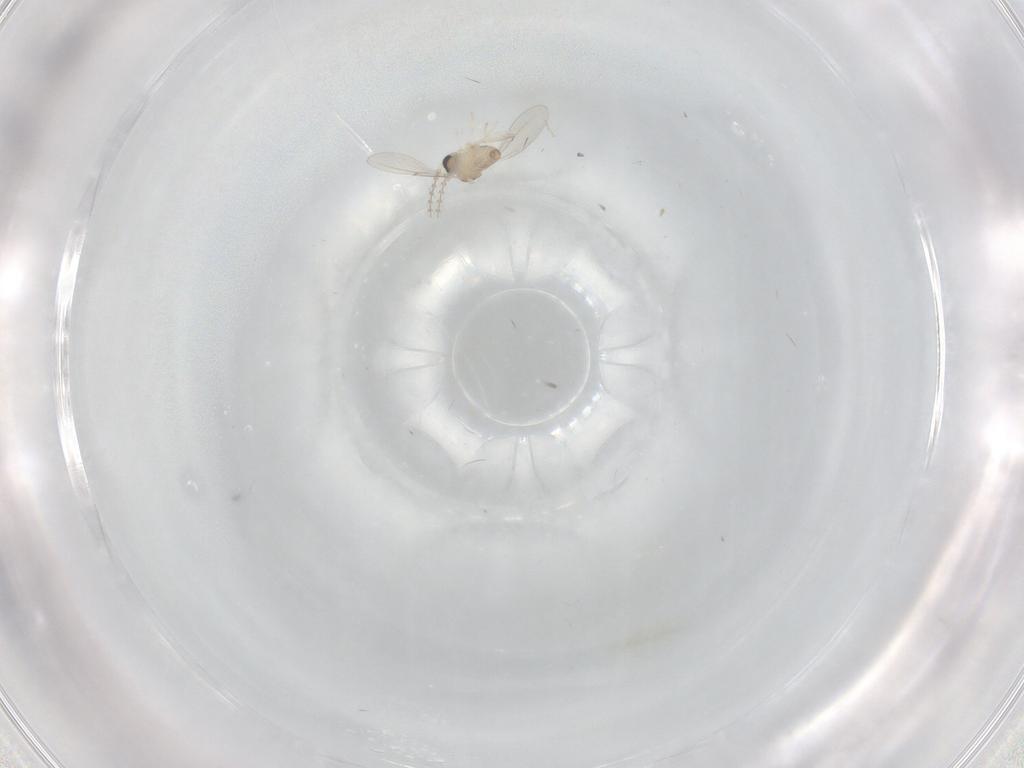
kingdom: Animalia
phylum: Arthropoda
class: Insecta
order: Diptera
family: Cecidomyiidae
